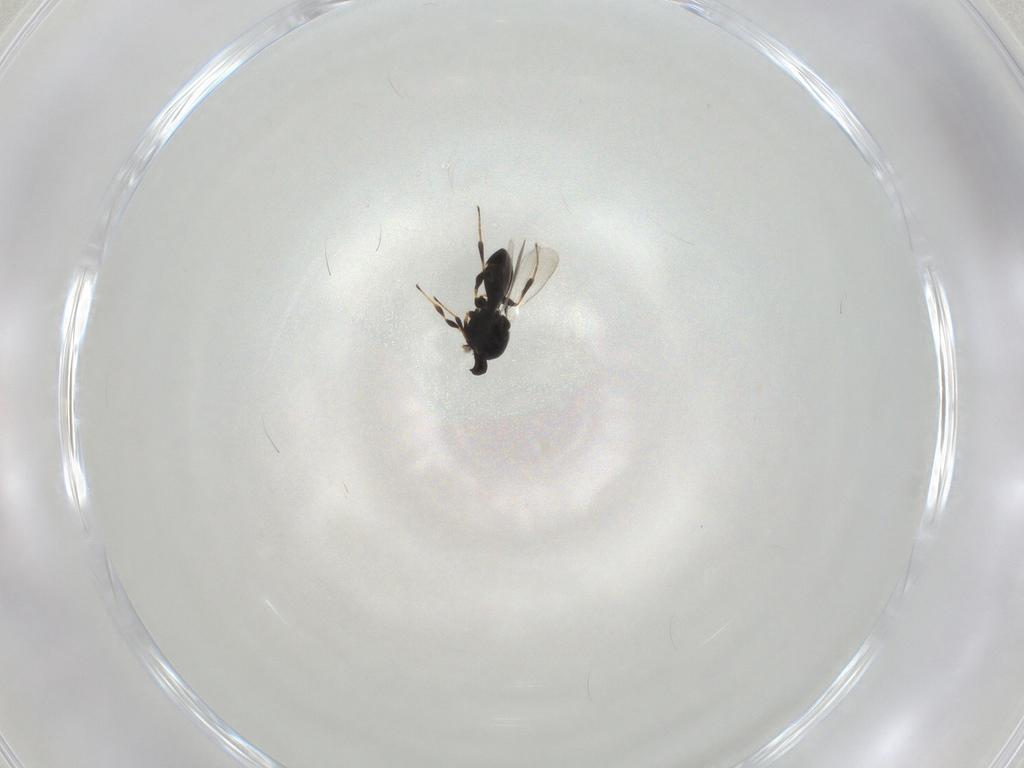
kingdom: Animalia
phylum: Arthropoda
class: Insecta
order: Hymenoptera
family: Platygastridae
